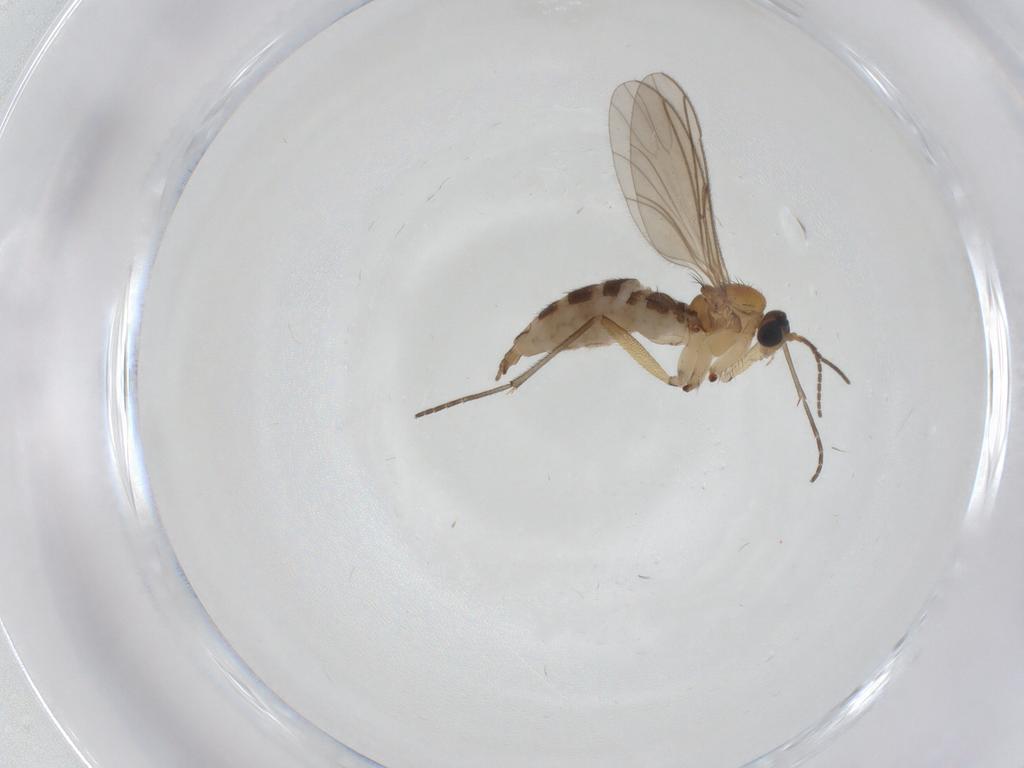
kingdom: Animalia
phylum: Arthropoda
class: Insecta
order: Diptera
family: Sciaridae
